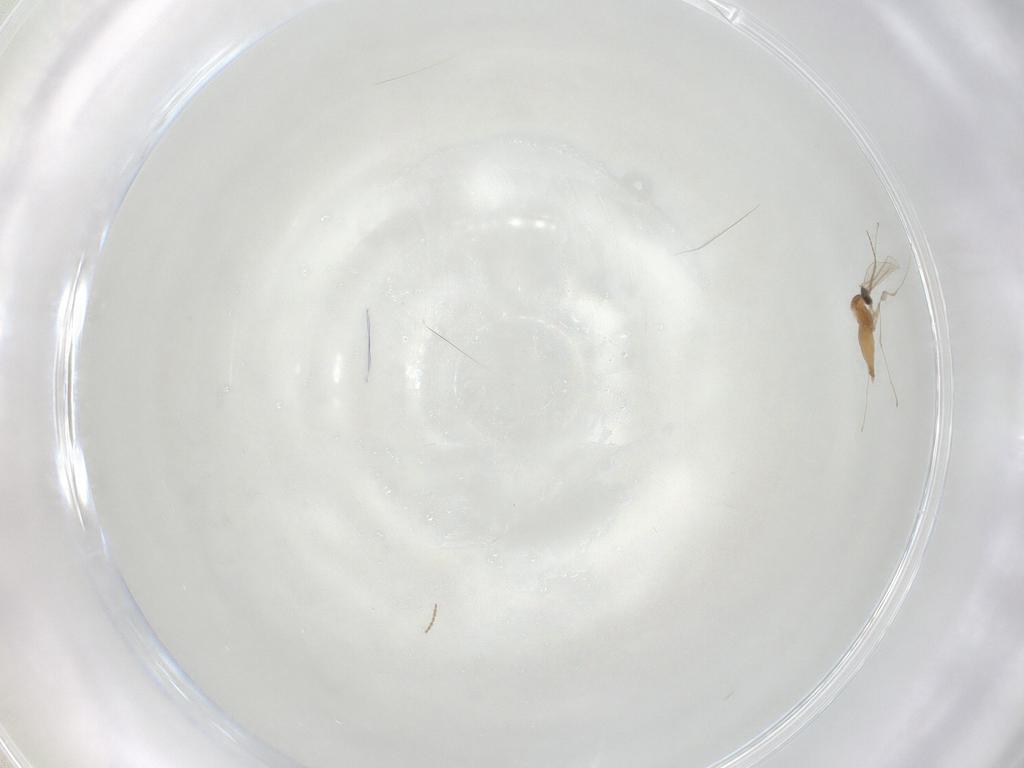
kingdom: Animalia
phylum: Arthropoda
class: Insecta
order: Diptera
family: Cecidomyiidae
